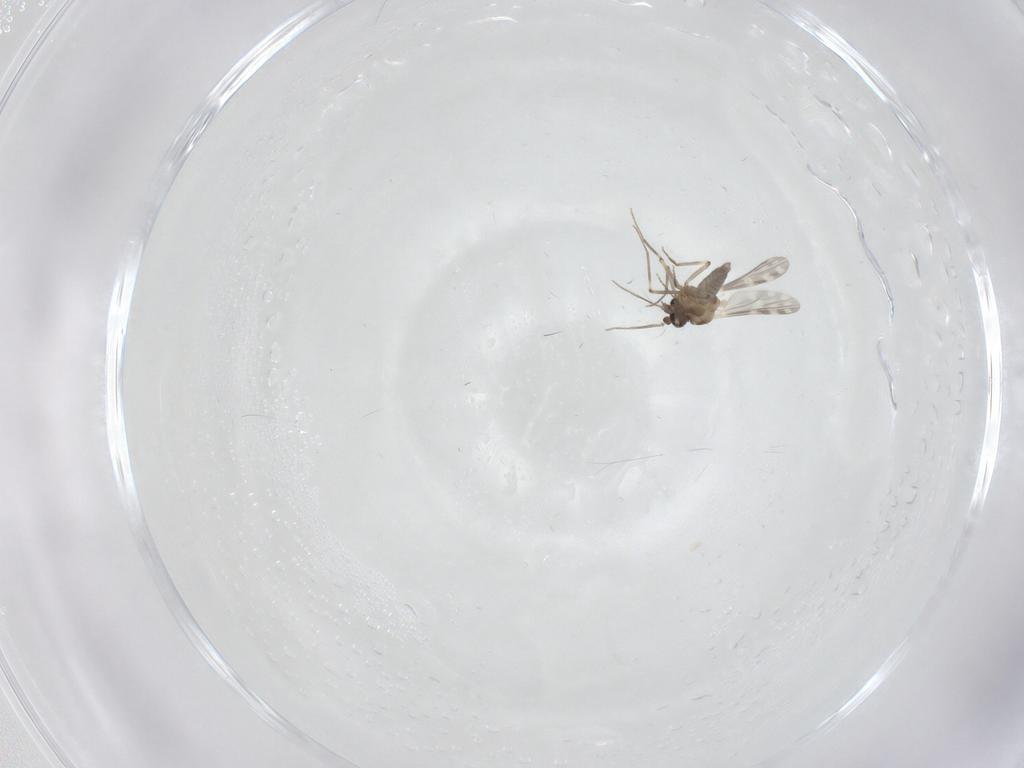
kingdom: Animalia
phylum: Arthropoda
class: Insecta
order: Diptera
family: Ceratopogonidae
